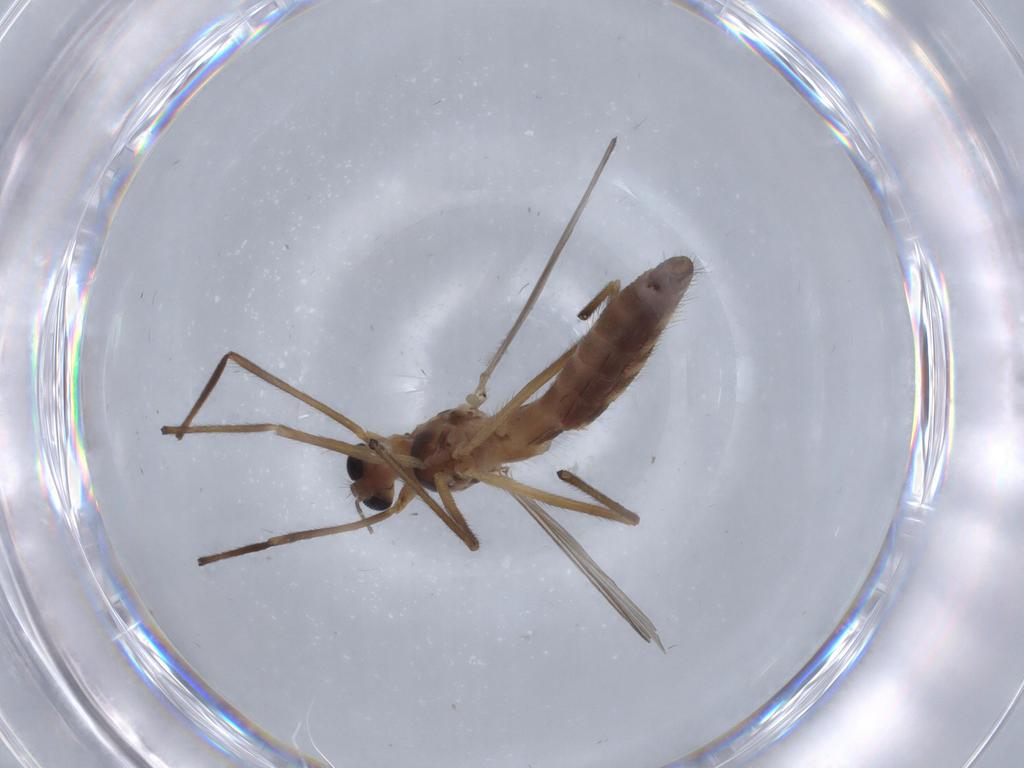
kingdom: Animalia
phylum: Arthropoda
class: Insecta
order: Diptera
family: Chironomidae
